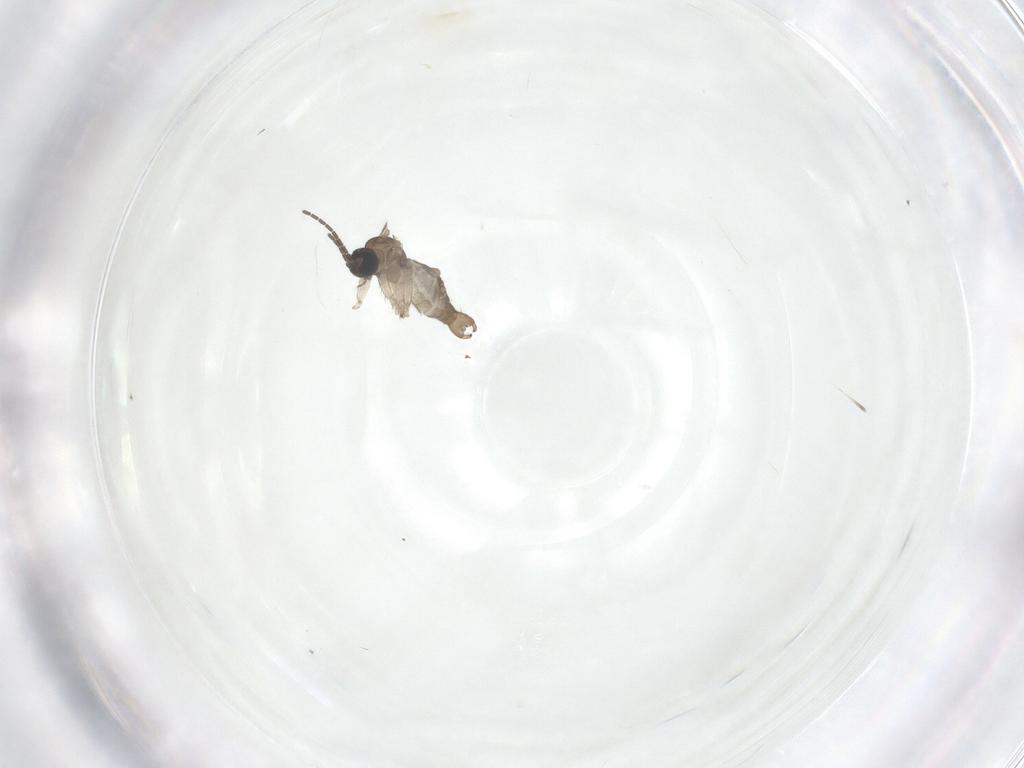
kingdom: Animalia
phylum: Arthropoda
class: Insecta
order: Diptera
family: Sciaridae
